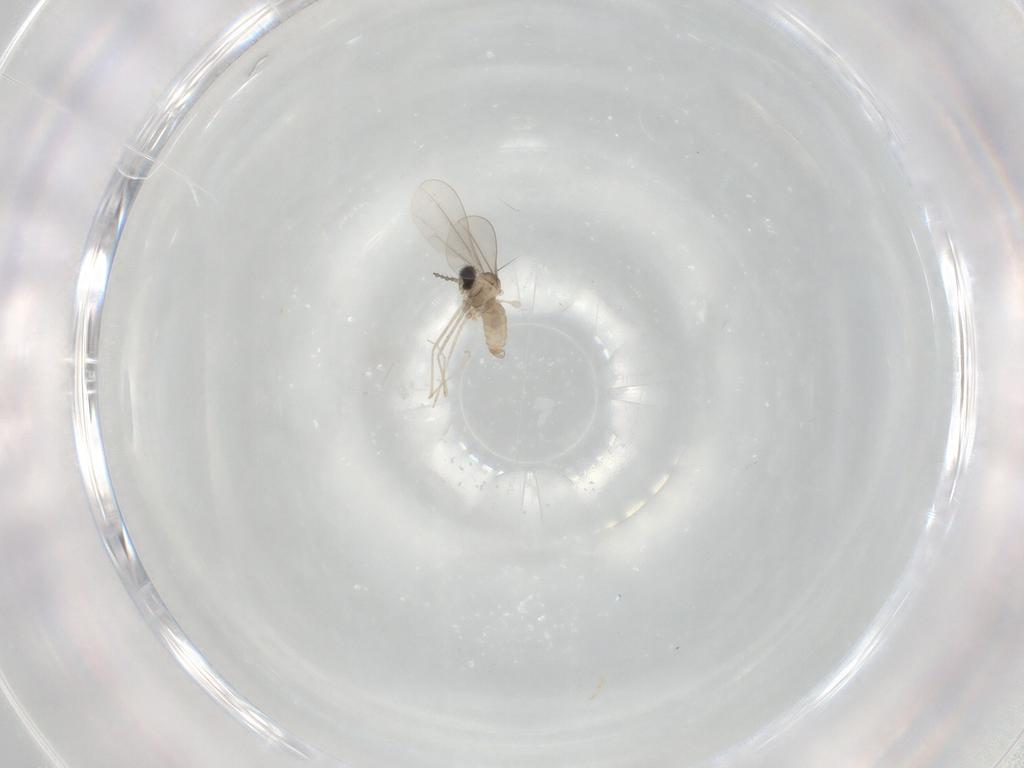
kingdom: Animalia
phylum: Arthropoda
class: Insecta
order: Diptera
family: Cecidomyiidae
